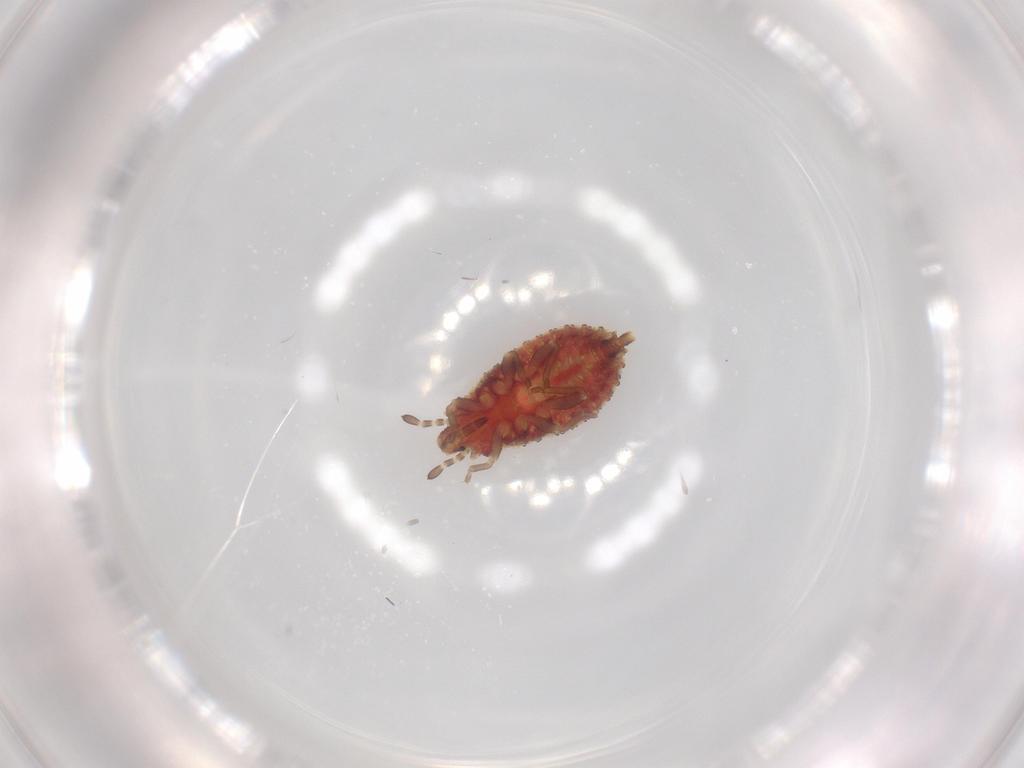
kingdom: Animalia
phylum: Arthropoda
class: Insecta
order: Hemiptera
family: Aradidae
